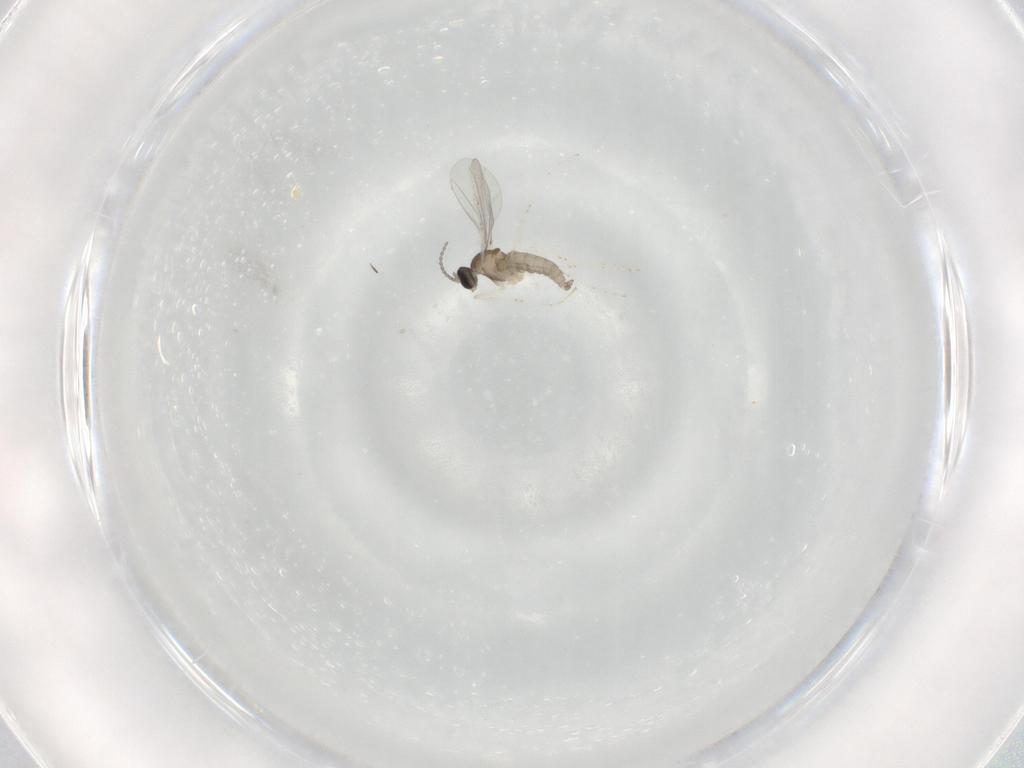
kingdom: Animalia
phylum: Arthropoda
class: Insecta
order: Diptera
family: Cecidomyiidae
